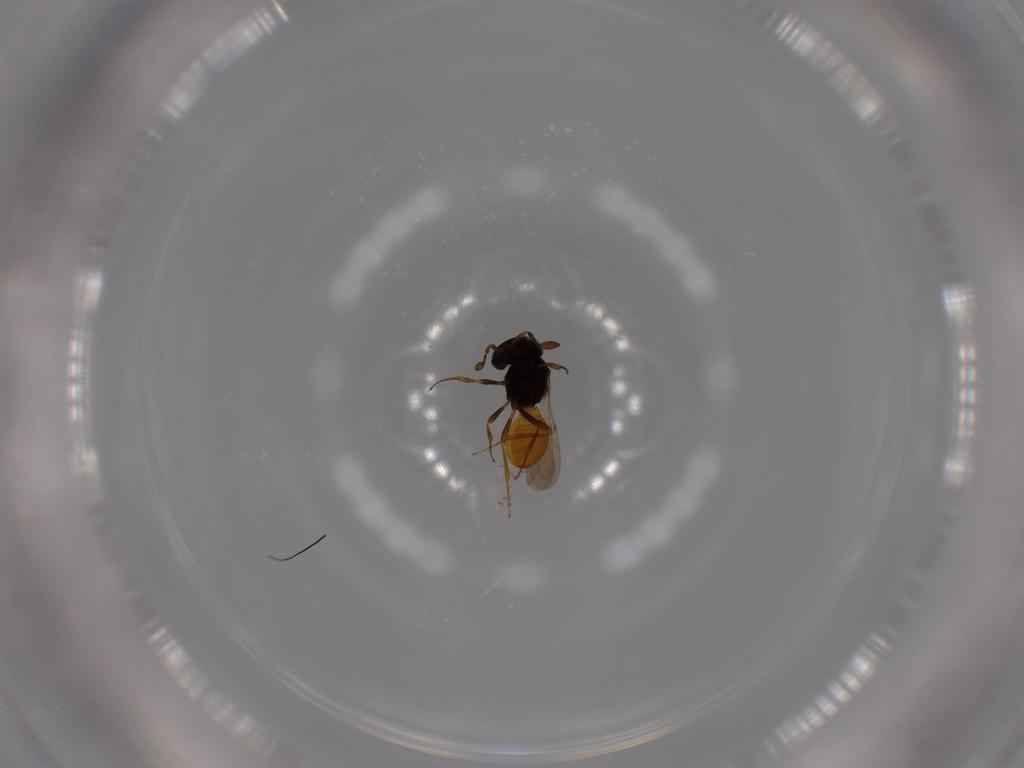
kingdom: Animalia
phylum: Arthropoda
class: Insecta
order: Hymenoptera
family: Scelionidae
